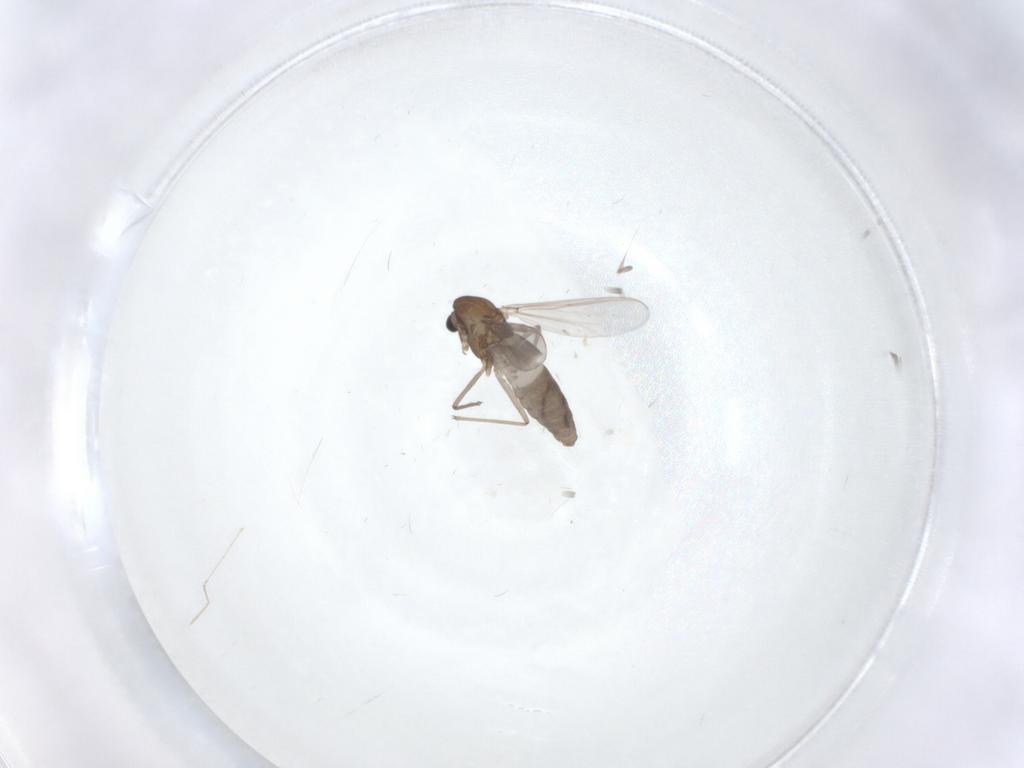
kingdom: Animalia
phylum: Arthropoda
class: Insecta
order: Diptera
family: Chironomidae
